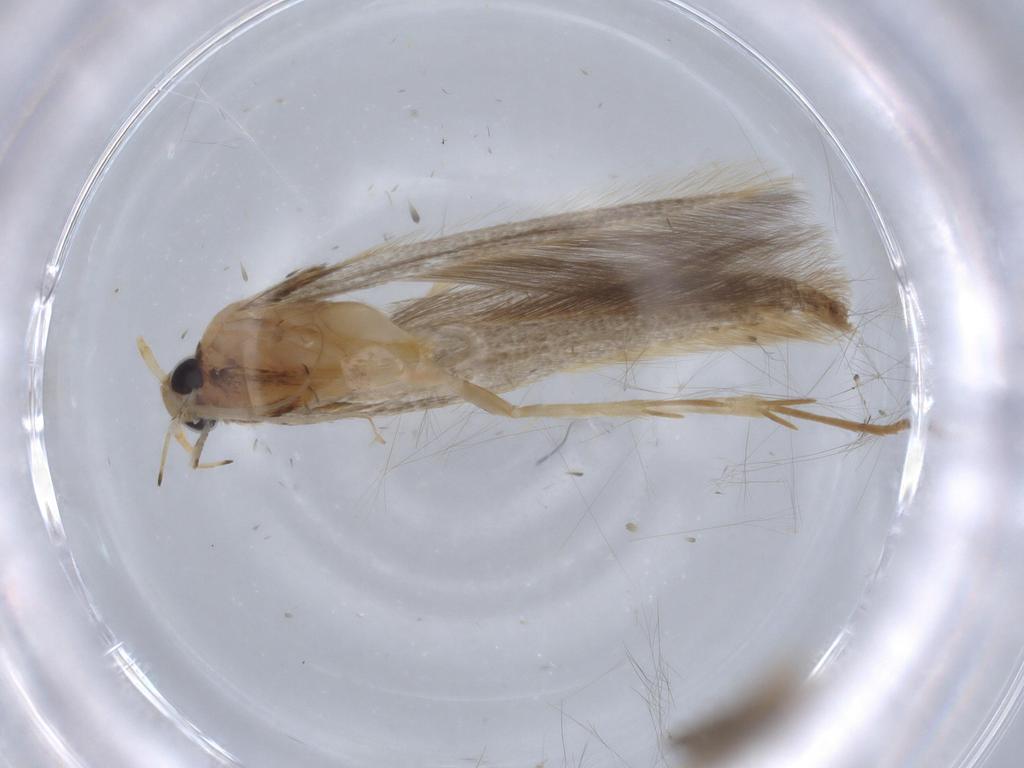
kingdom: Animalia
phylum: Arthropoda
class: Insecta
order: Lepidoptera
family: Tineidae
